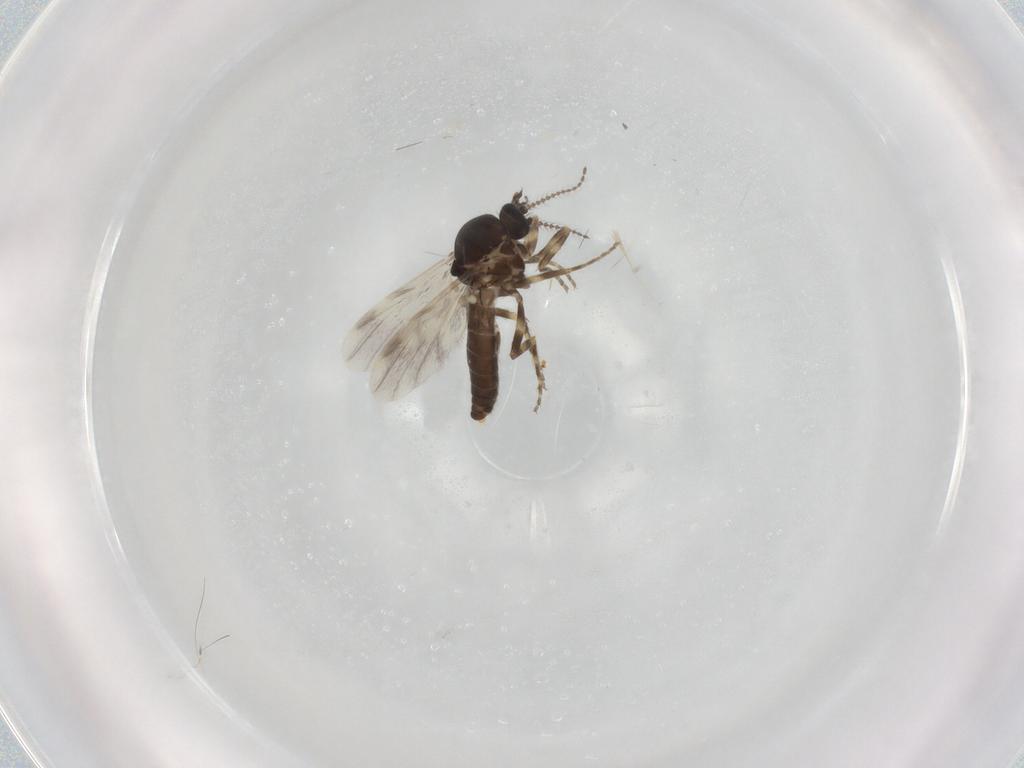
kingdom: Animalia
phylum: Arthropoda
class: Insecta
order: Diptera
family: Ceratopogonidae
